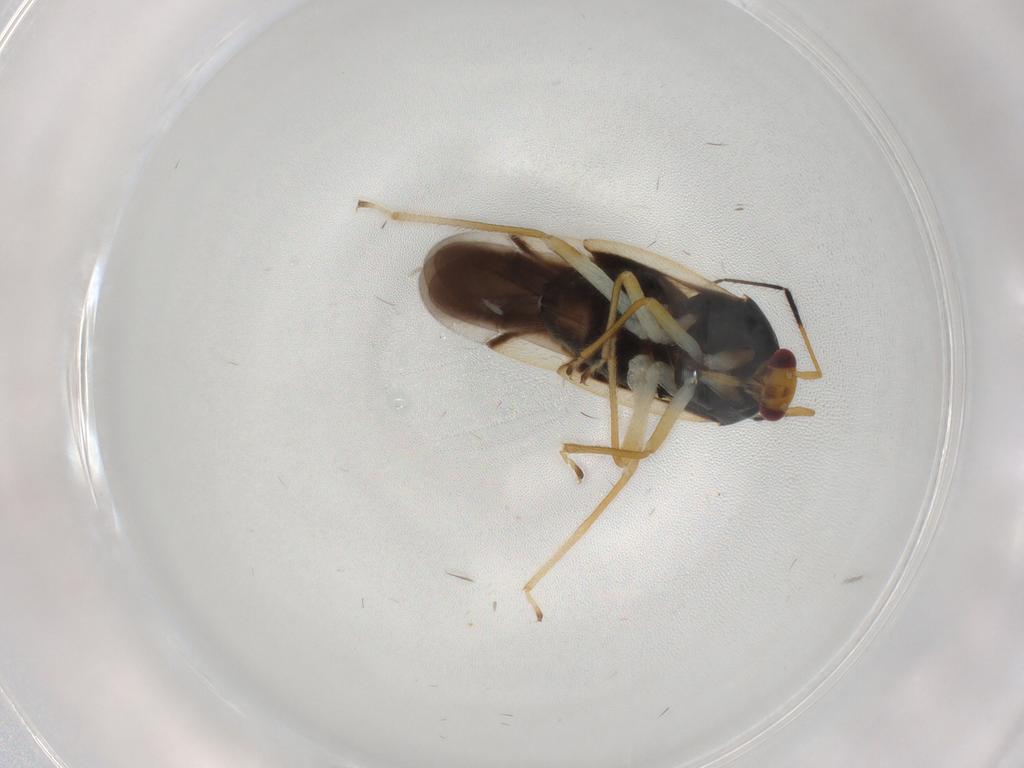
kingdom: Animalia
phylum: Arthropoda
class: Insecta
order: Hemiptera
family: Miridae
